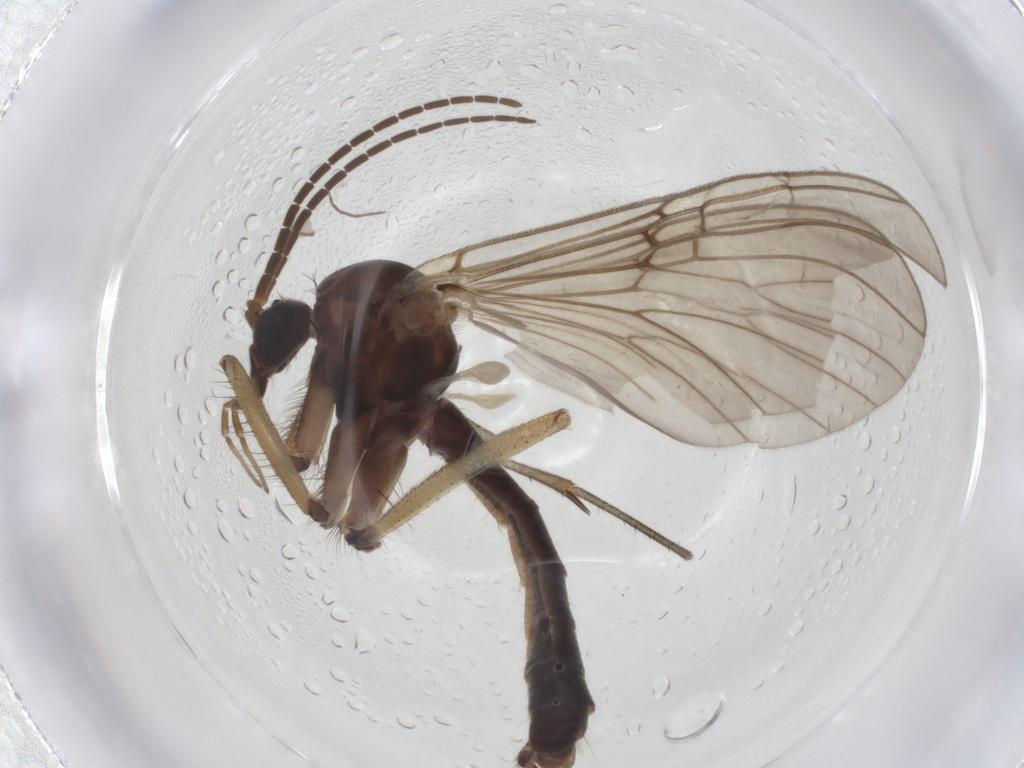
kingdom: Animalia
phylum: Arthropoda
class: Insecta
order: Diptera
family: Mycetophilidae
